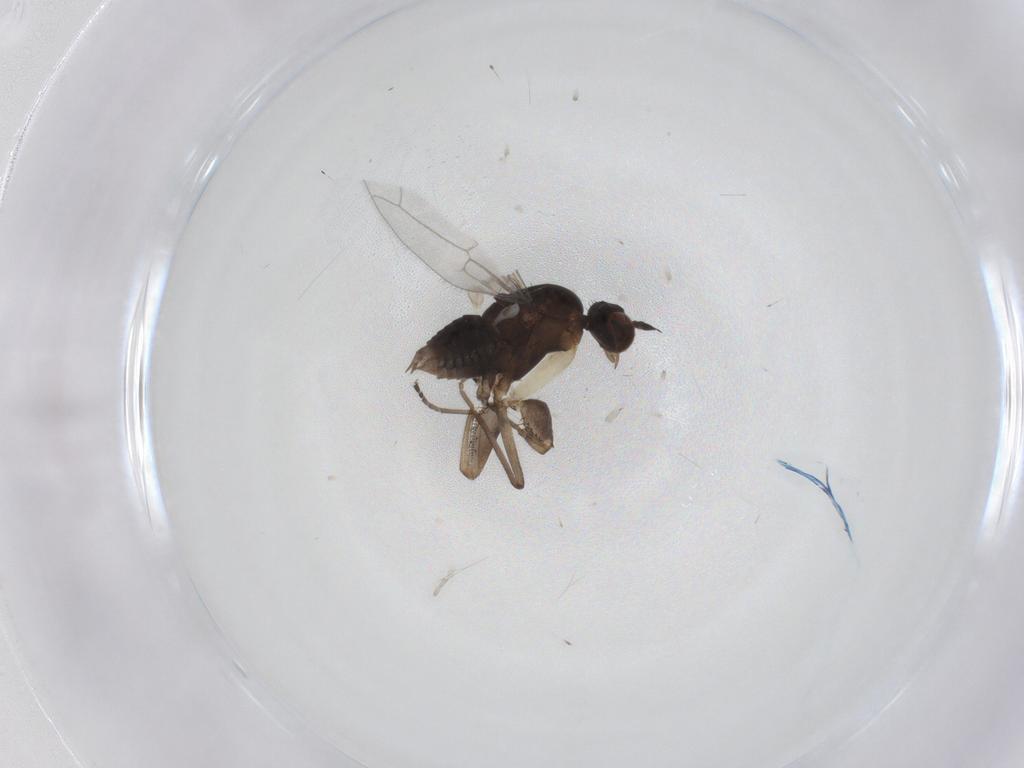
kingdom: Animalia
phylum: Arthropoda
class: Insecta
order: Diptera
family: Empididae
